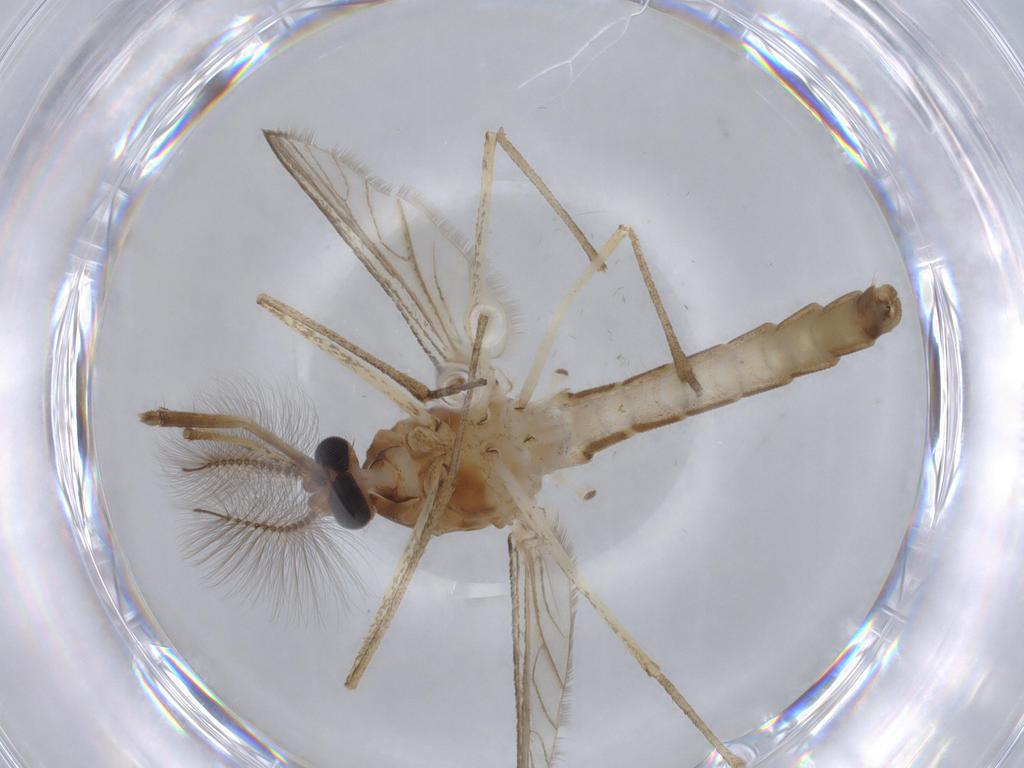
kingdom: Animalia
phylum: Arthropoda
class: Insecta
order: Diptera
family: Culicidae
